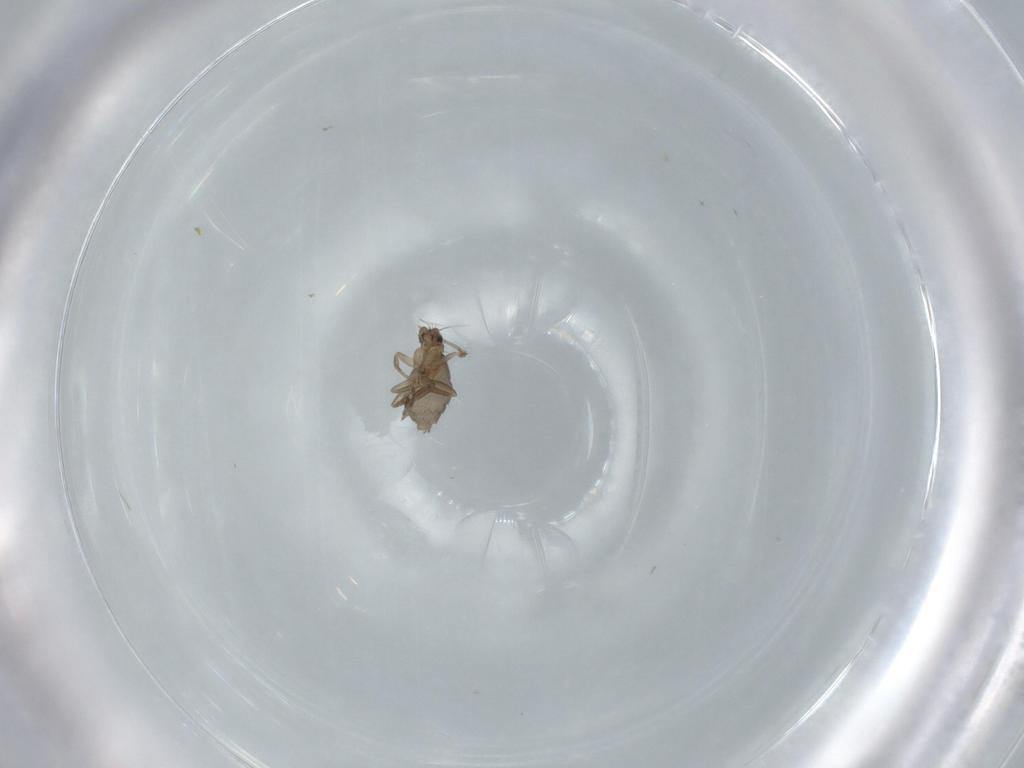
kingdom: Animalia
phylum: Arthropoda
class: Insecta
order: Diptera
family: Phoridae
